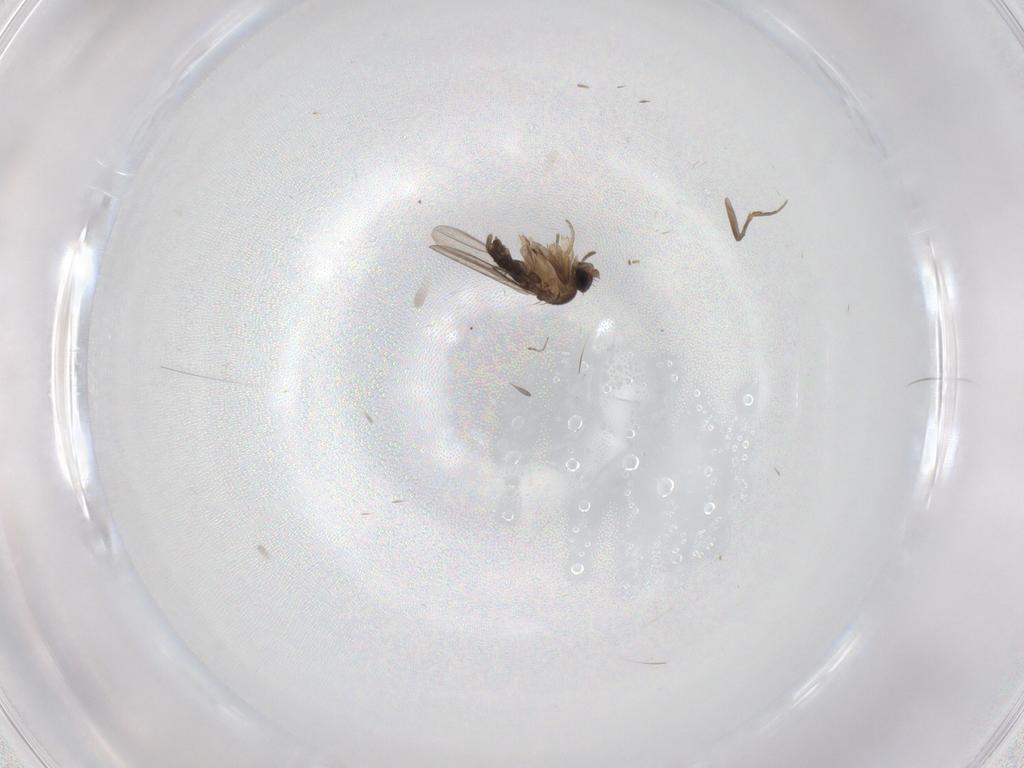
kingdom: Animalia
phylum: Arthropoda
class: Insecta
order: Diptera
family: Phoridae
